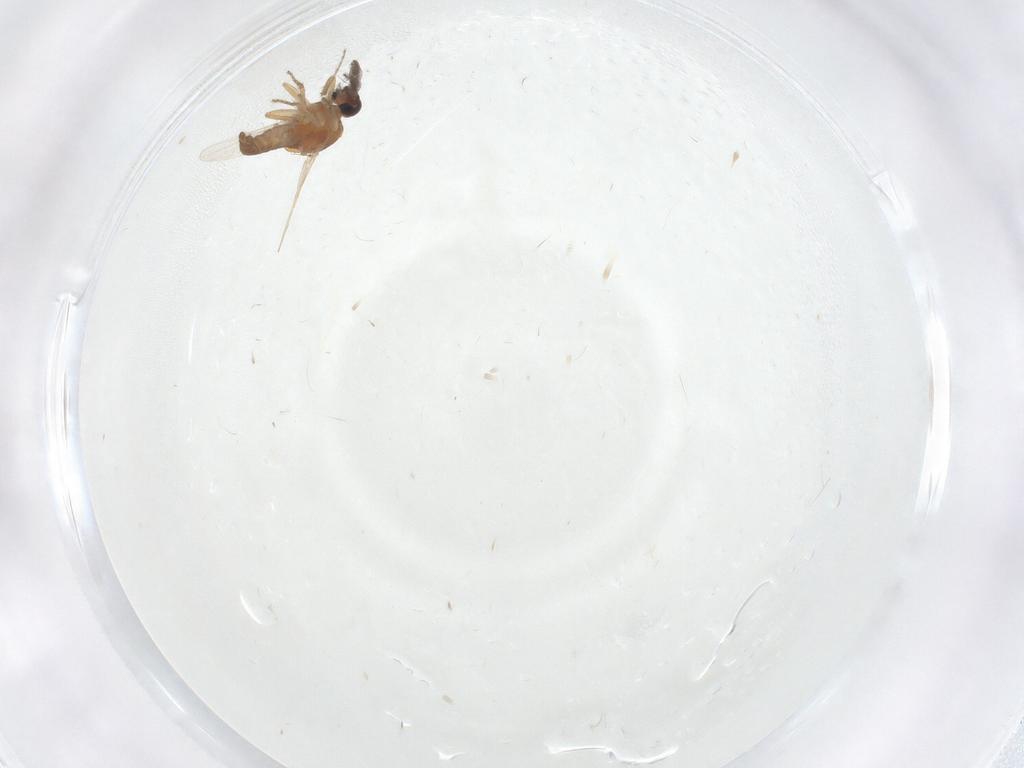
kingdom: Animalia
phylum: Arthropoda
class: Insecta
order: Diptera
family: Ceratopogonidae
